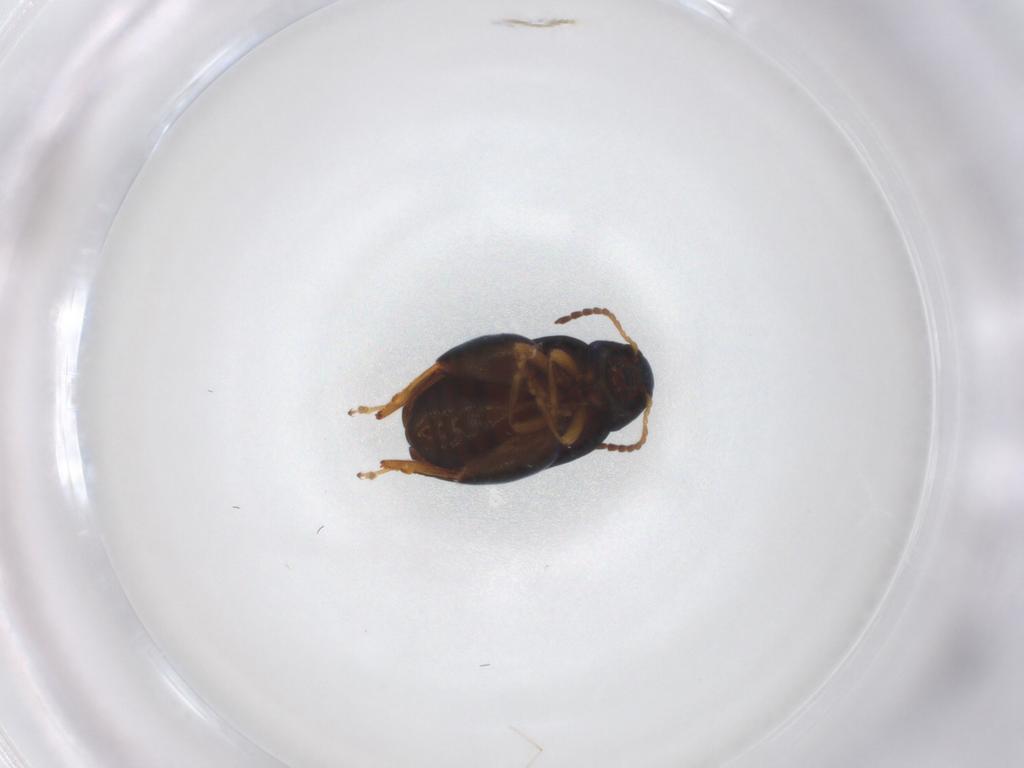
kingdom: Animalia
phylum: Arthropoda
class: Insecta
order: Coleoptera
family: Chrysomelidae
